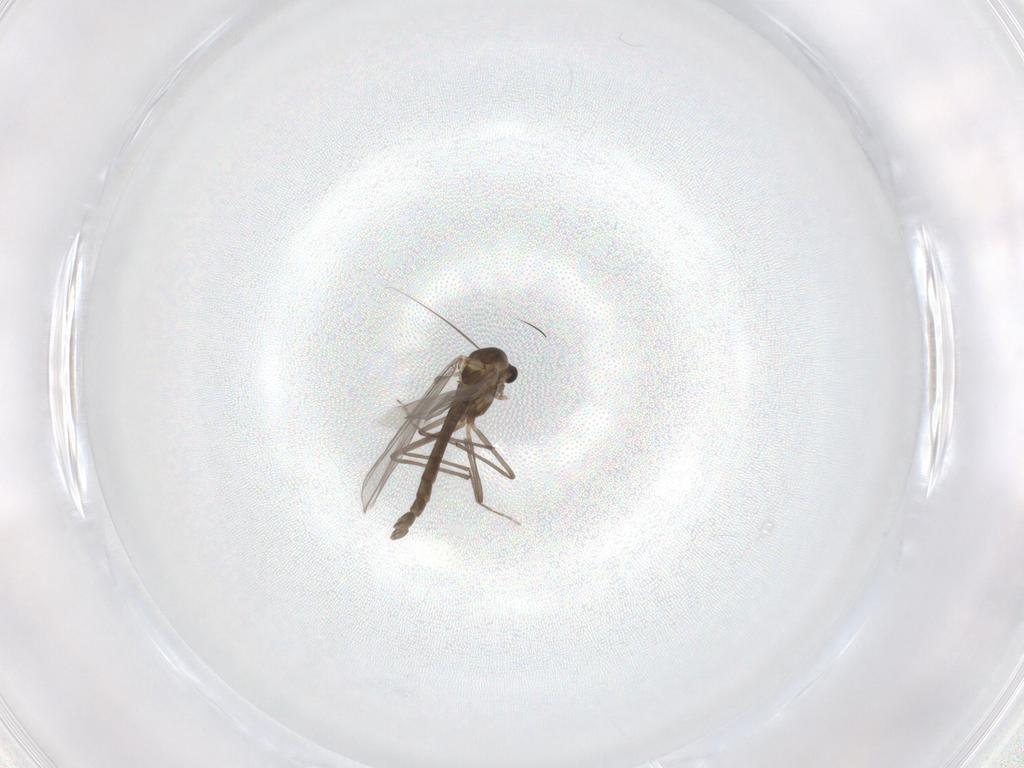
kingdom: Animalia
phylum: Arthropoda
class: Insecta
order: Diptera
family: Chironomidae
